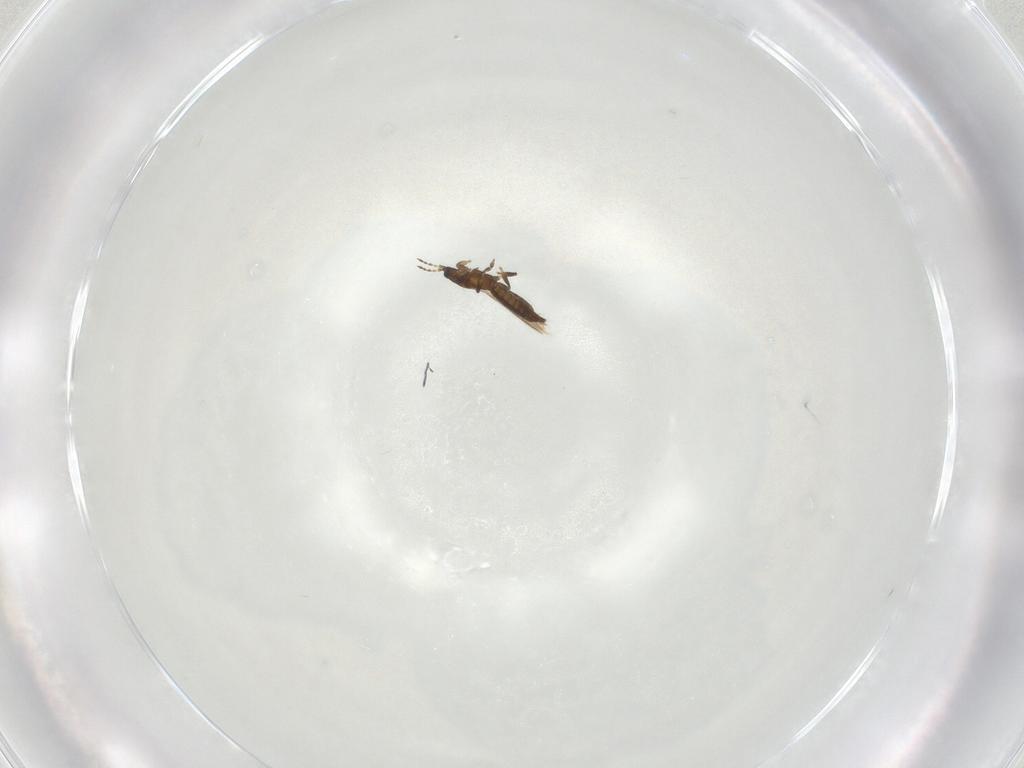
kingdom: Animalia
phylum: Arthropoda
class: Insecta
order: Thysanoptera
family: Thripidae
